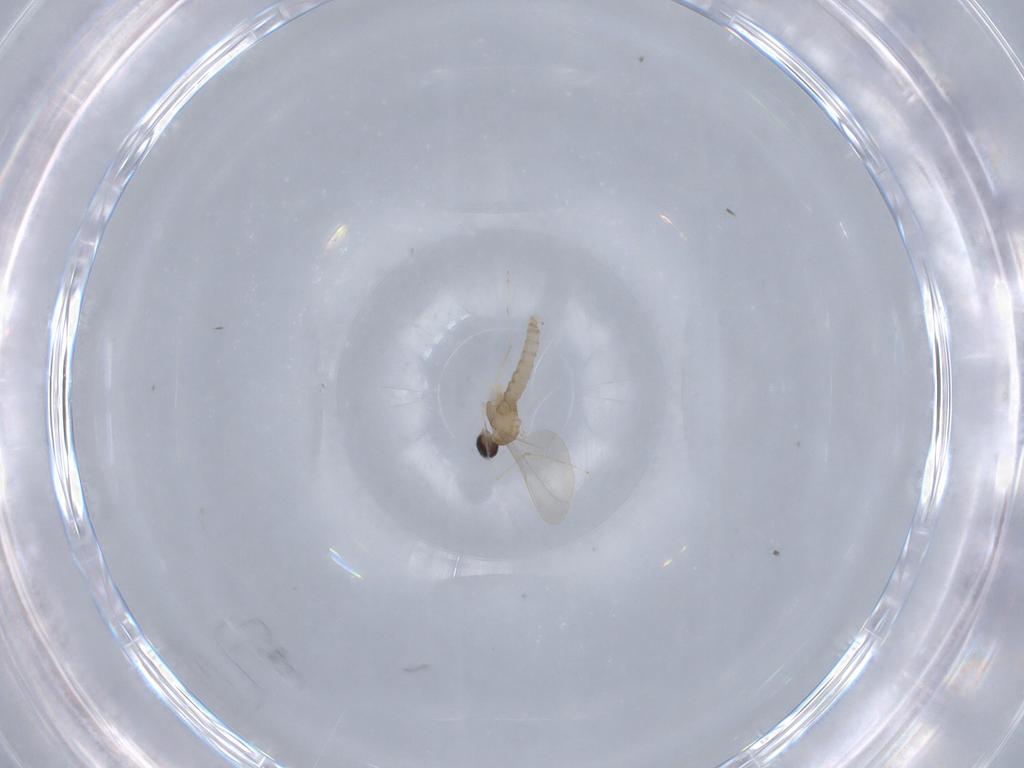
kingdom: Animalia
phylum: Arthropoda
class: Insecta
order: Diptera
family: Cecidomyiidae
